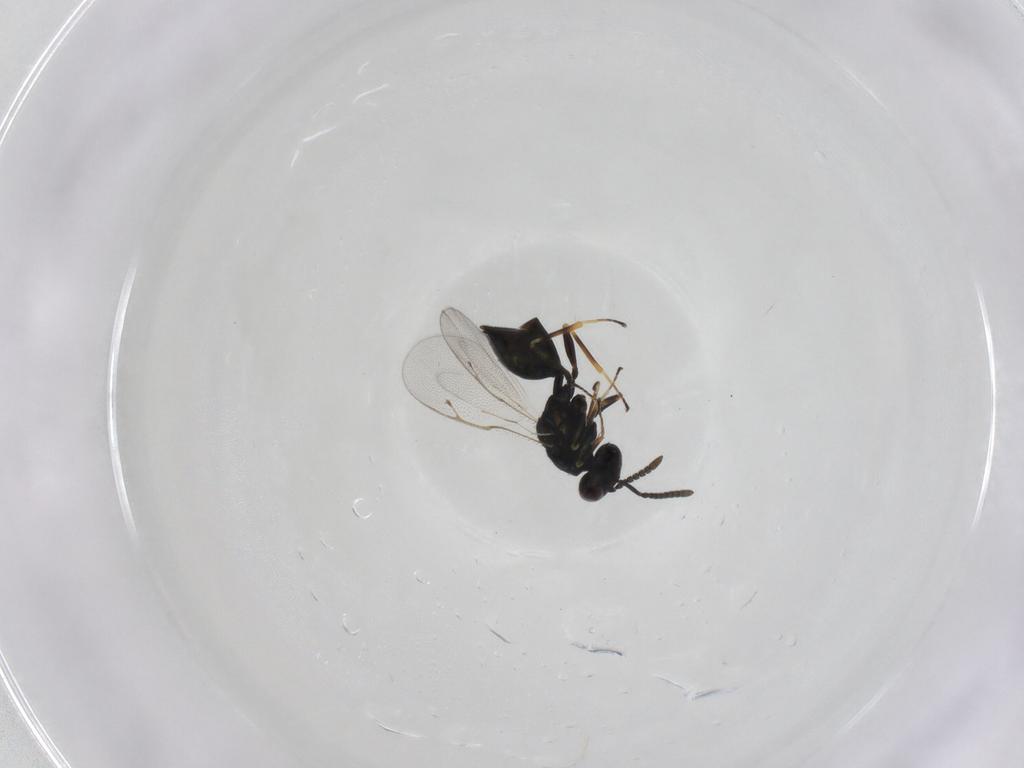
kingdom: Animalia
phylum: Arthropoda
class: Insecta
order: Hymenoptera
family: Pteromalidae
